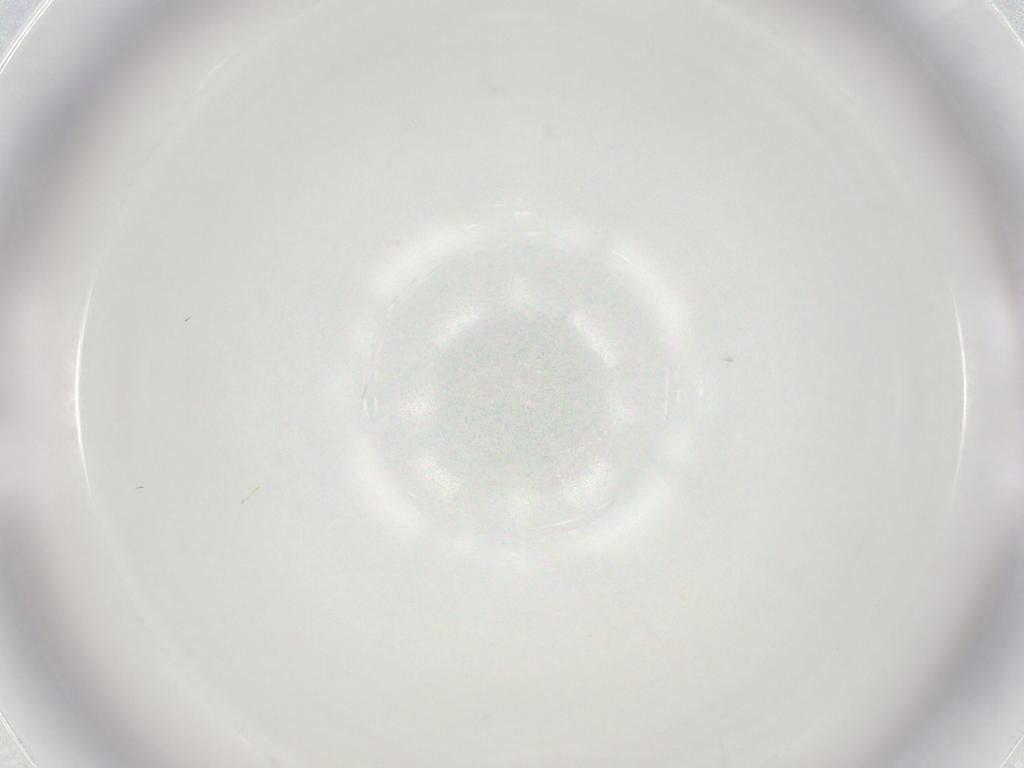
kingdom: Animalia
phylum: Arthropoda
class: Insecta
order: Diptera
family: Cecidomyiidae
